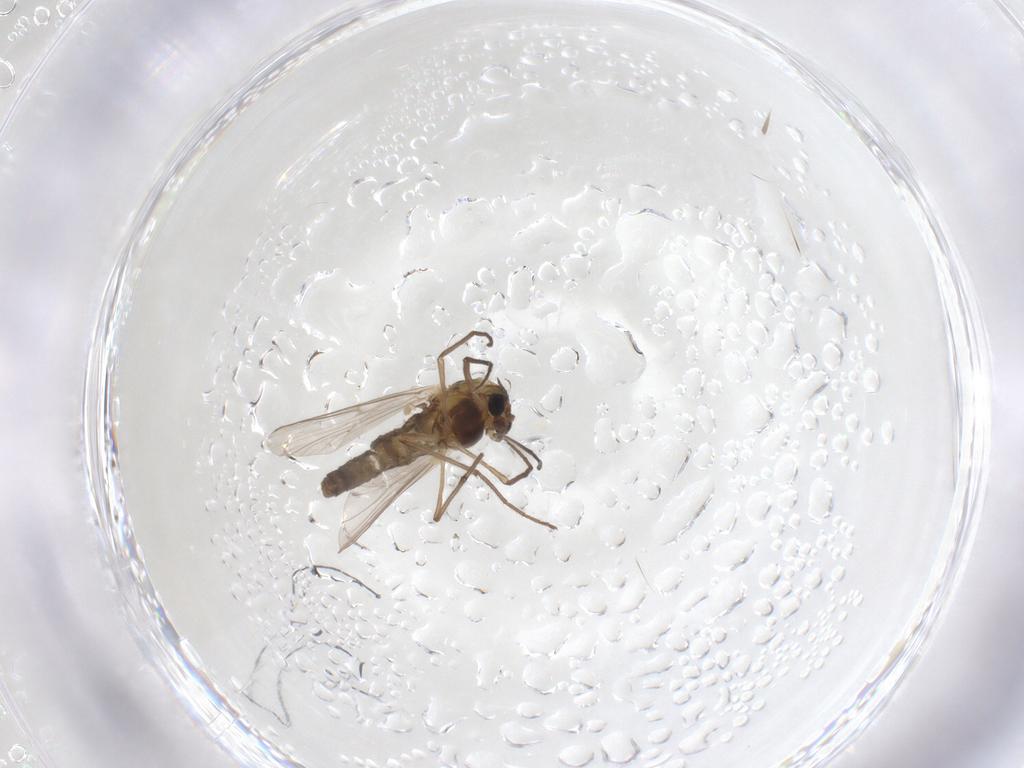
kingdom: Animalia
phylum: Arthropoda
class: Insecta
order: Diptera
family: Chironomidae
